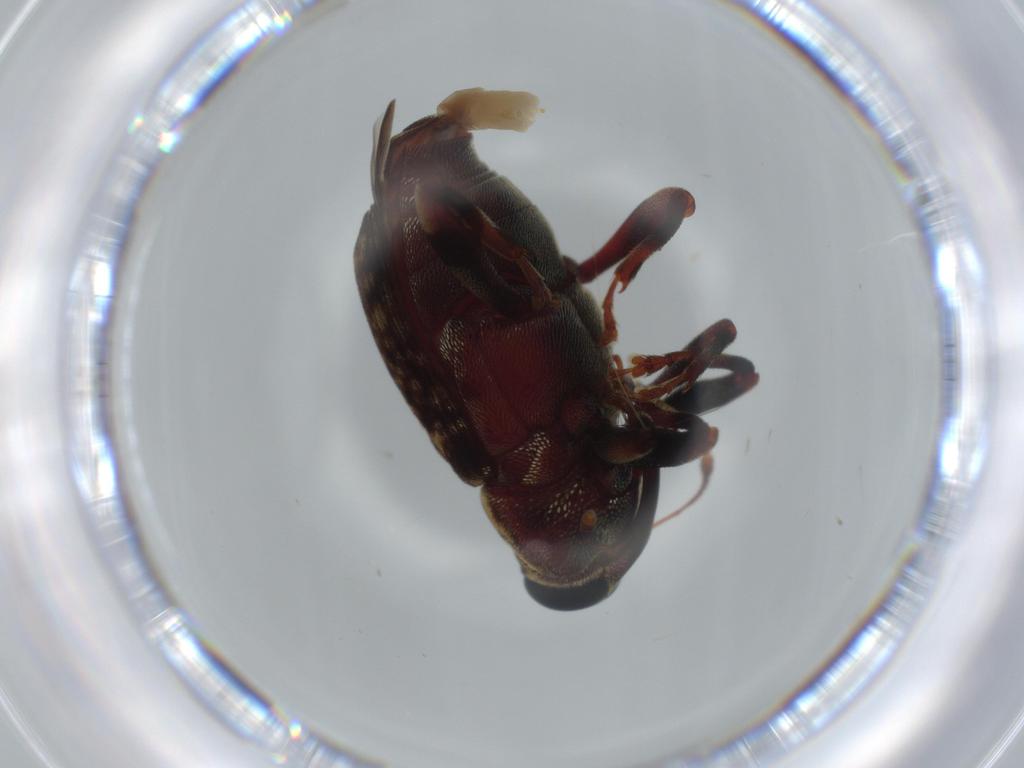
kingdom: Animalia
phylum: Arthropoda
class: Insecta
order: Coleoptera
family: Curculionidae
